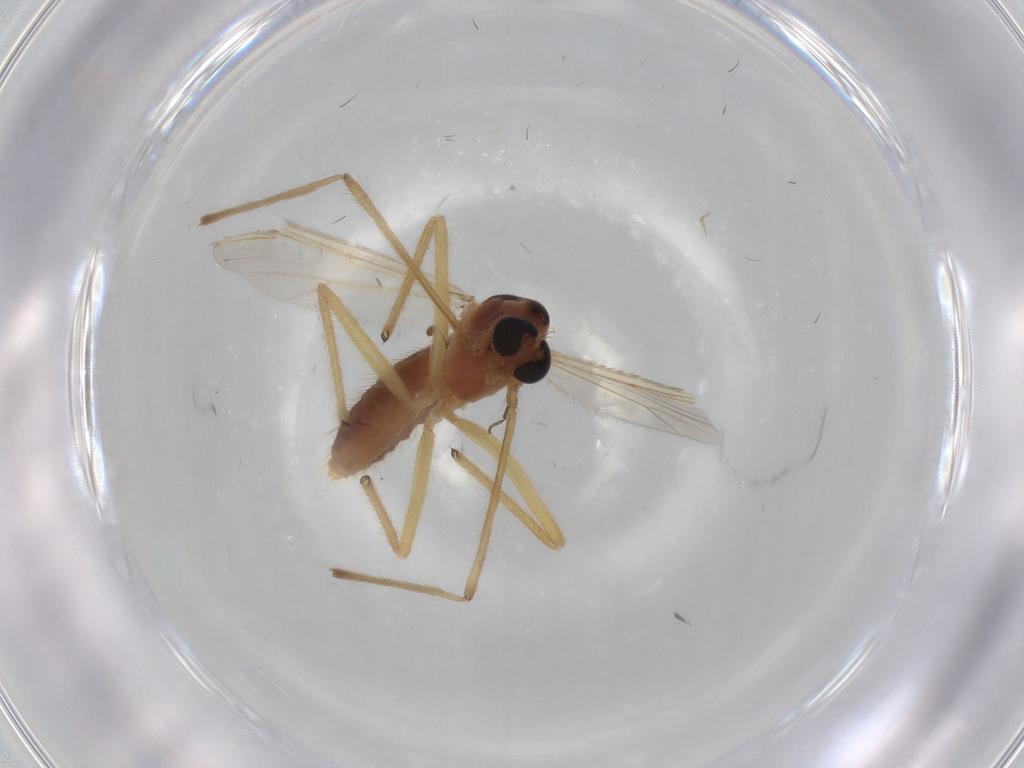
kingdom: Animalia
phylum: Arthropoda
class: Insecta
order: Diptera
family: Chironomidae
